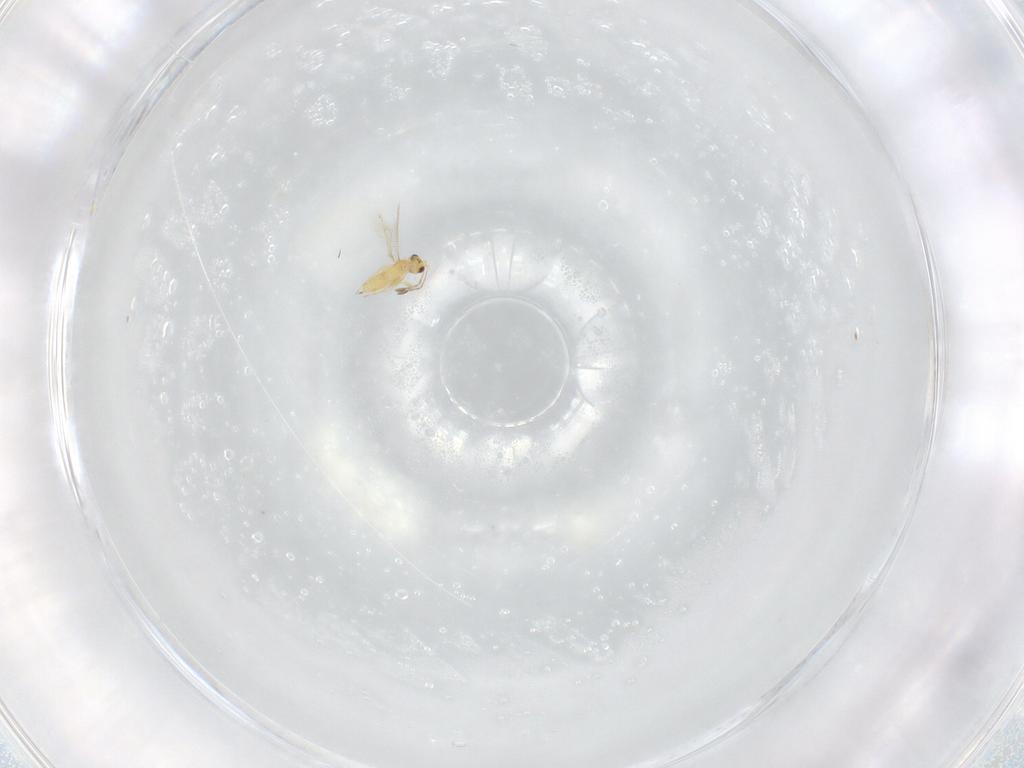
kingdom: Animalia
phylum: Arthropoda
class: Insecta
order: Hymenoptera
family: Mymaridae
